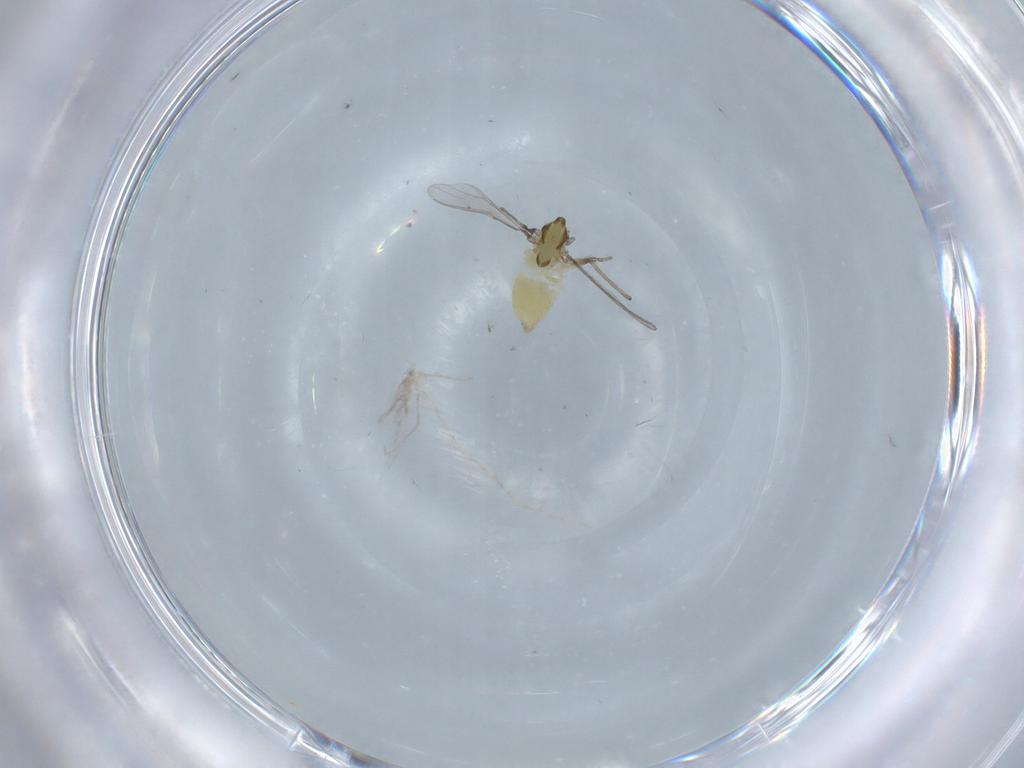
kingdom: Animalia
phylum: Arthropoda
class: Insecta
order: Diptera
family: Chironomidae
